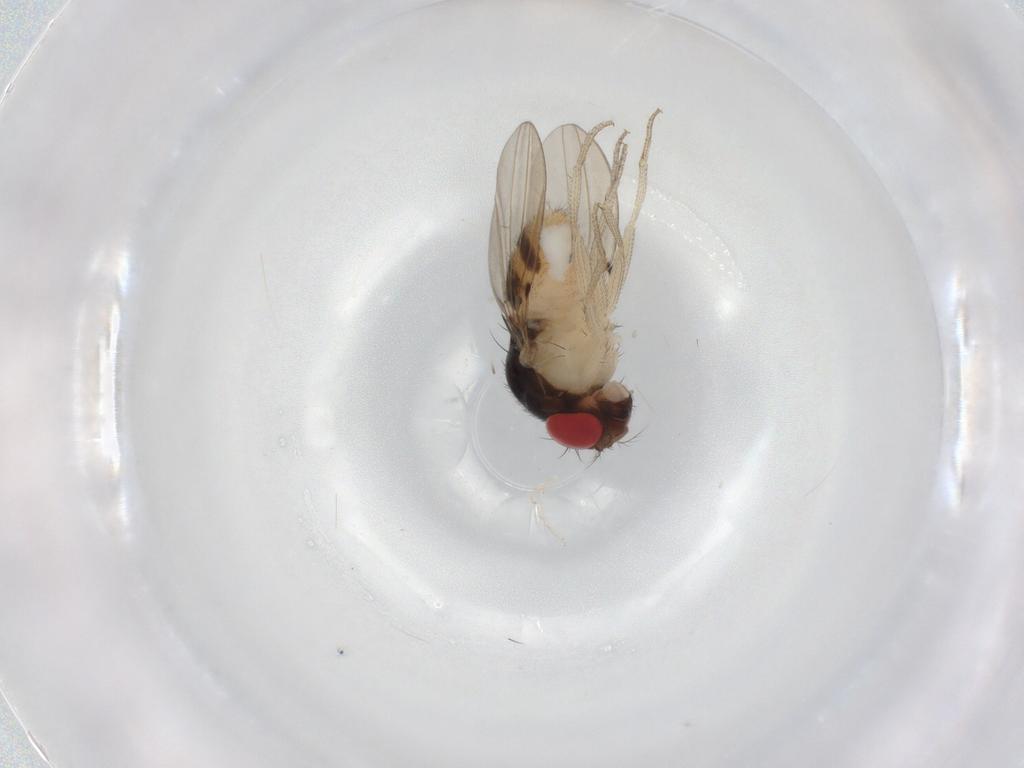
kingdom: Animalia
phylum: Arthropoda
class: Insecta
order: Diptera
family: Drosophilidae
